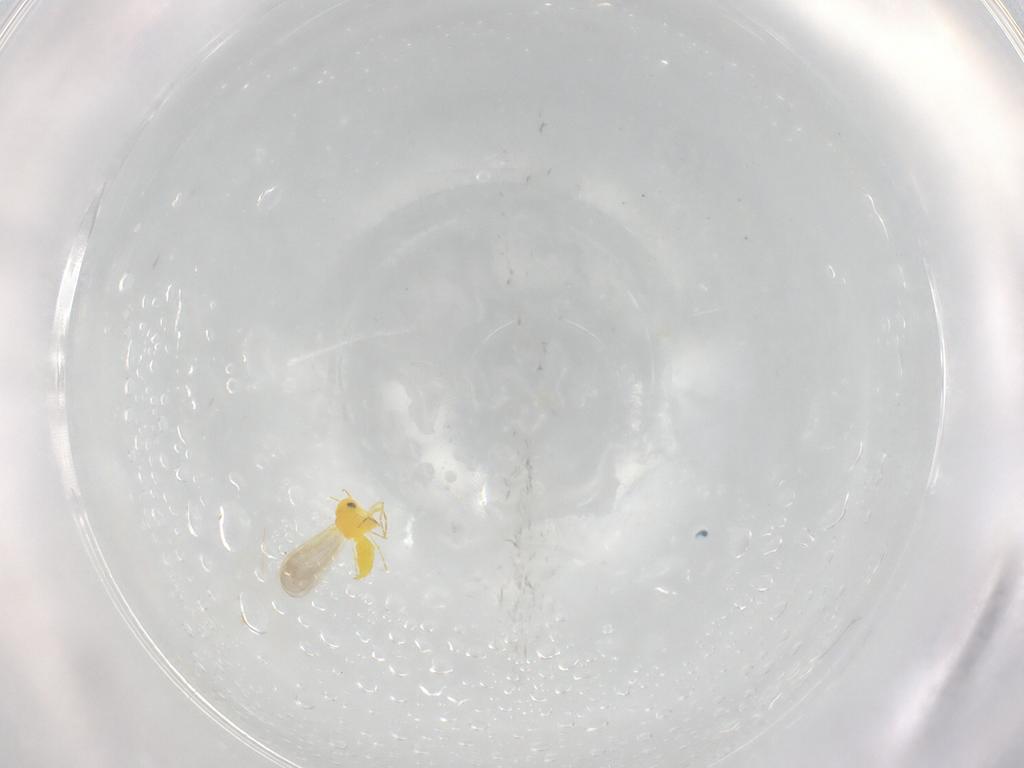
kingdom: Animalia
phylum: Arthropoda
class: Insecta
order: Hemiptera
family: Aleyrodidae
